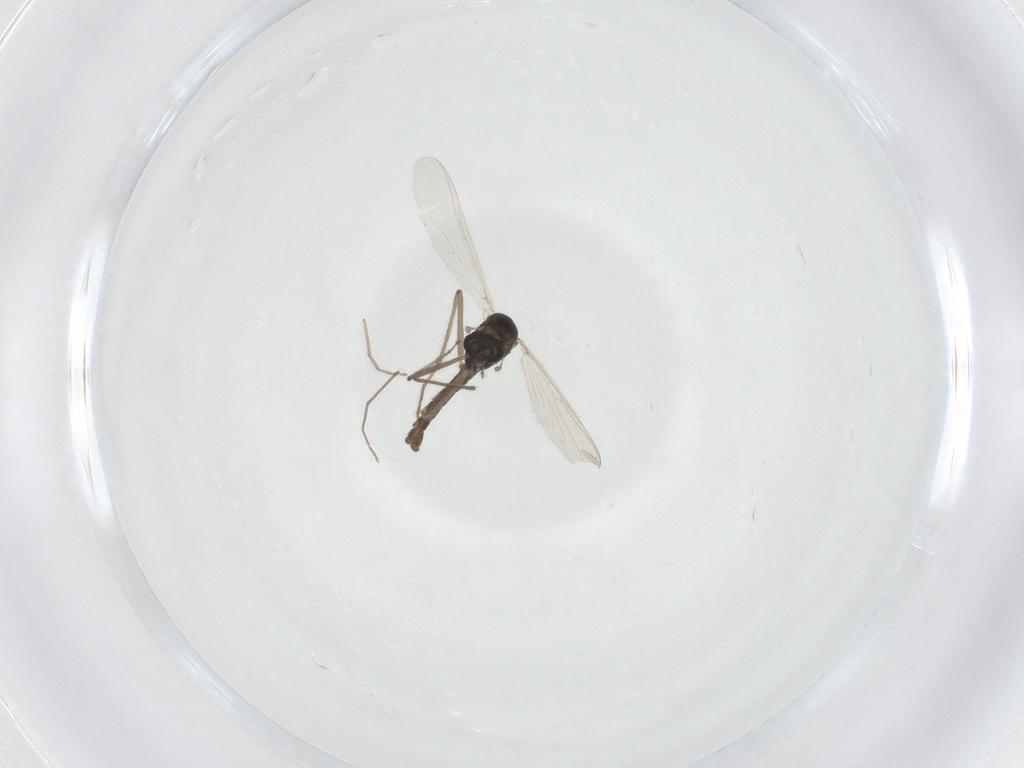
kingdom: Animalia
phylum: Arthropoda
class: Insecta
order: Diptera
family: Chironomidae
